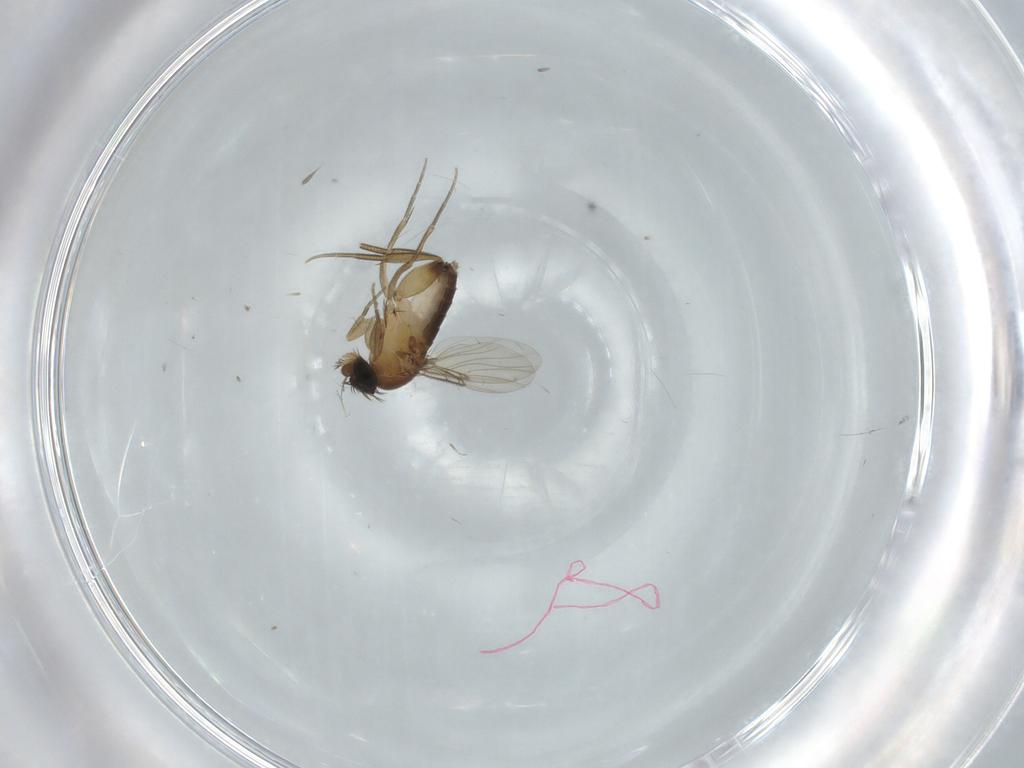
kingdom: Animalia
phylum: Arthropoda
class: Insecta
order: Diptera
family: Phoridae
